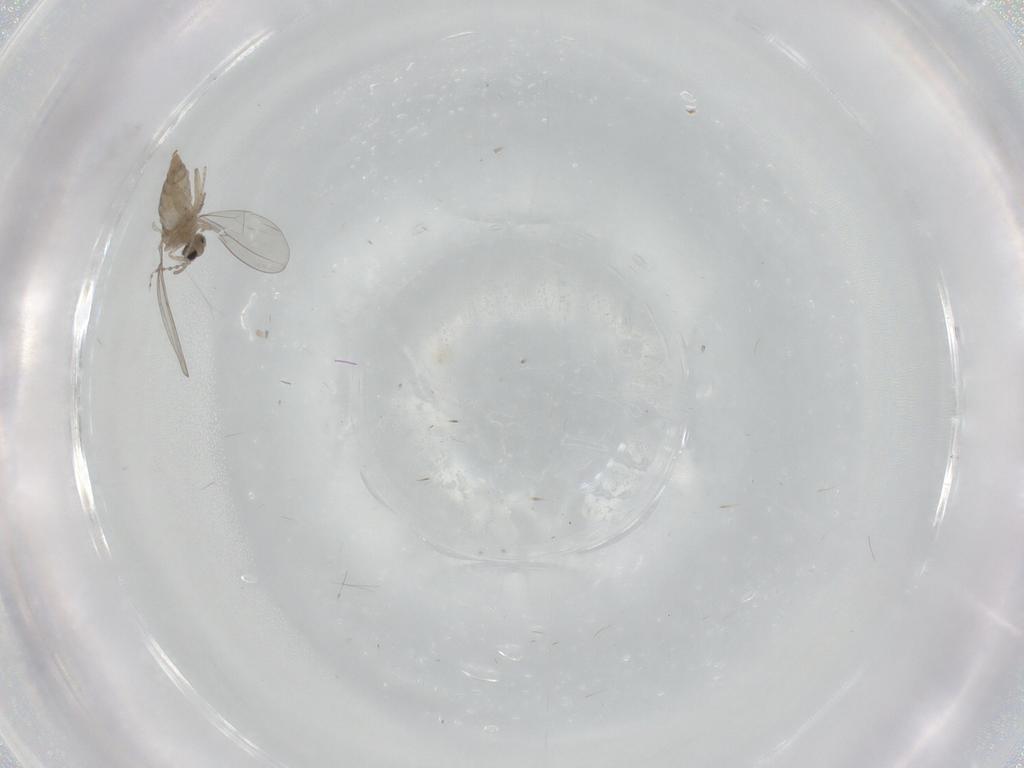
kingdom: Animalia
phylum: Arthropoda
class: Insecta
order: Diptera
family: Cecidomyiidae
